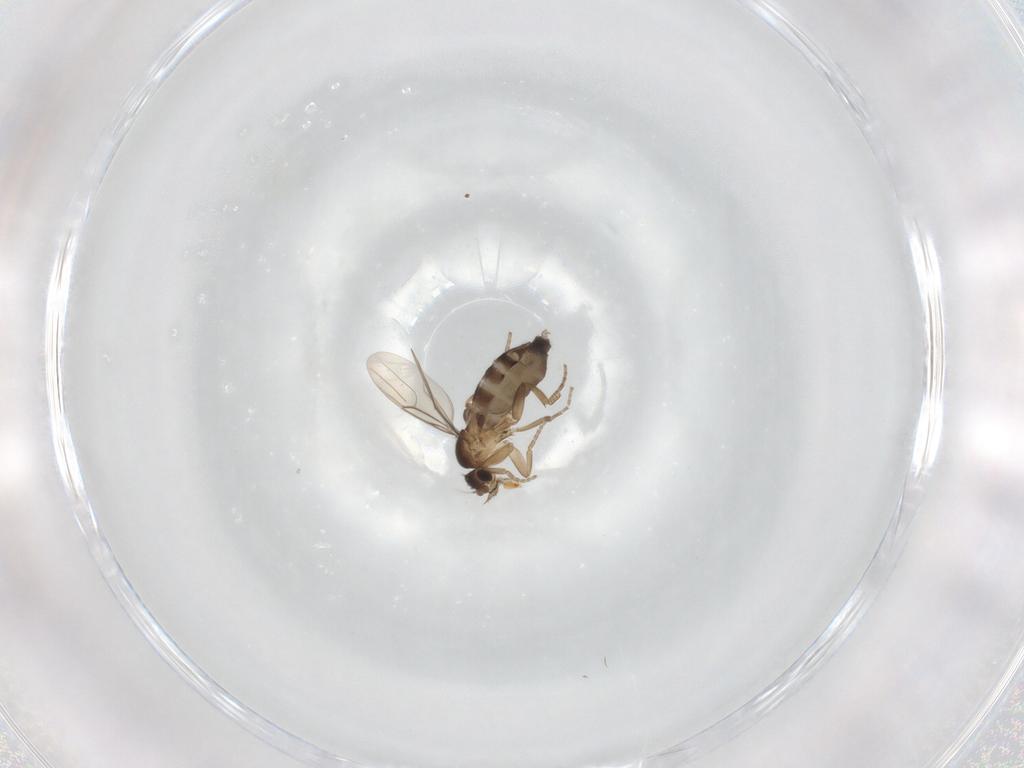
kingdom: Animalia
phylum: Arthropoda
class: Insecta
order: Diptera
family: Phoridae
